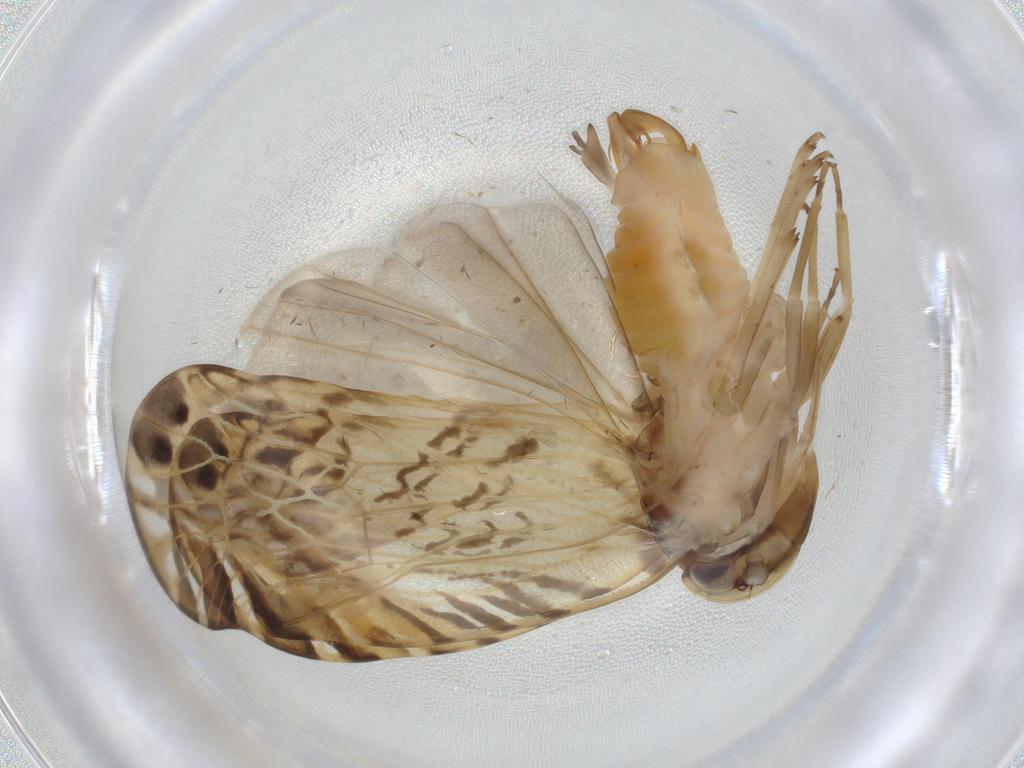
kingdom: Animalia
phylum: Arthropoda
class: Insecta
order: Hemiptera
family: Cixiidae
